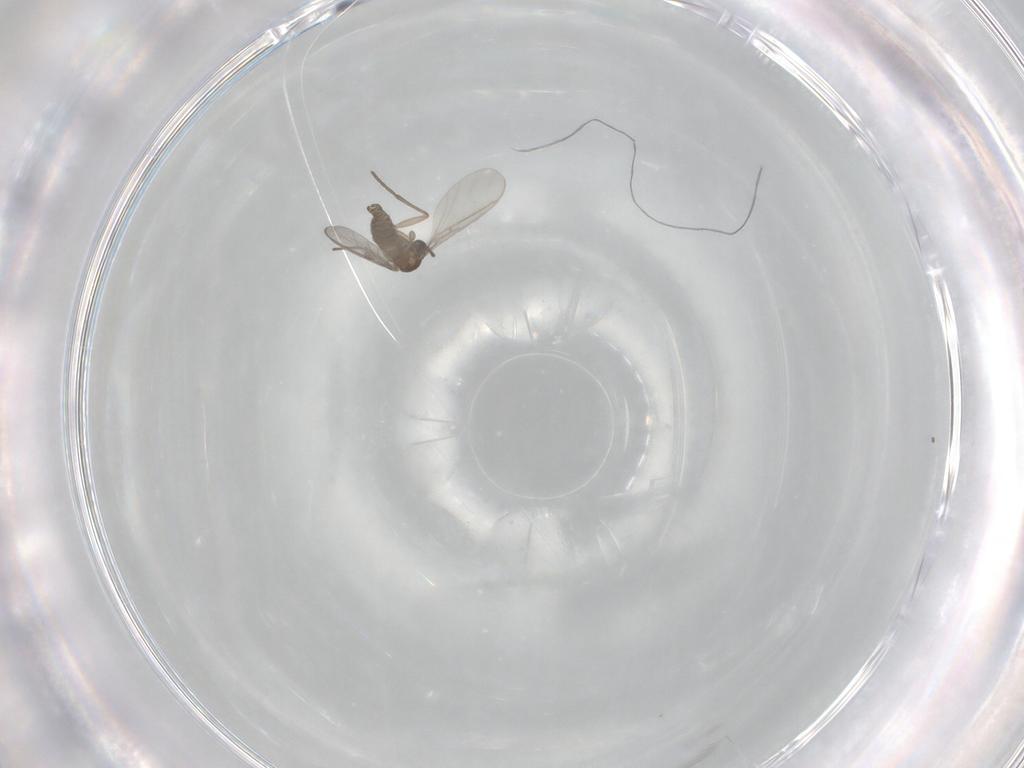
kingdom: Animalia
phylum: Arthropoda
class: Insecta
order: Diptera
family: Sciaridae
